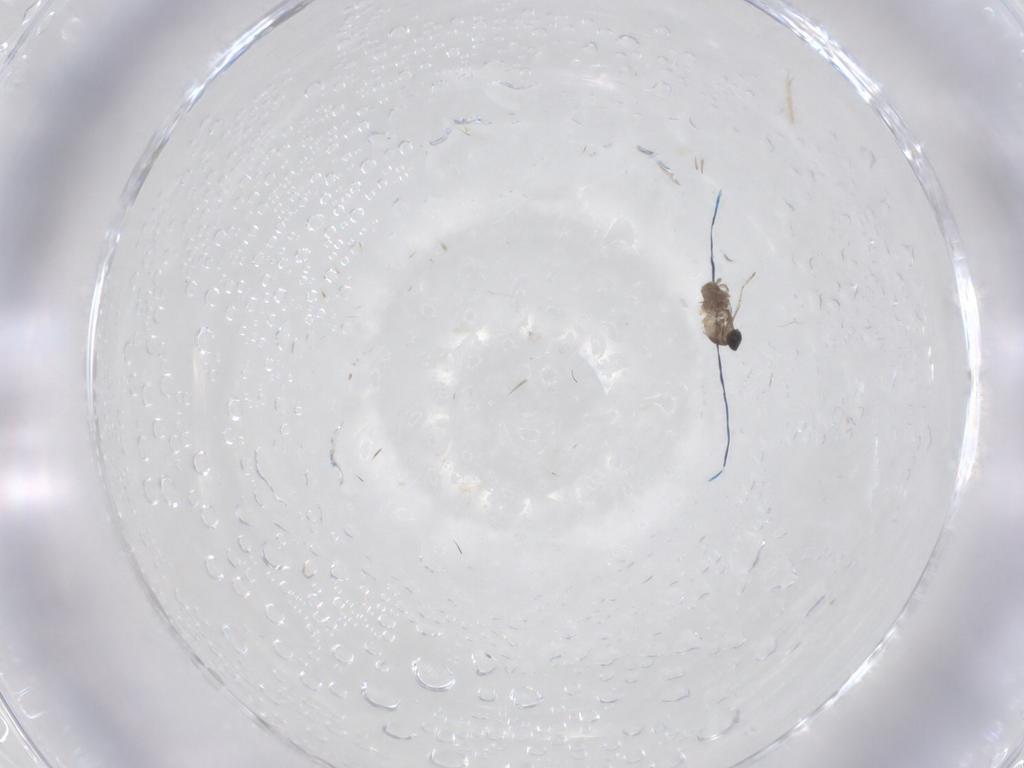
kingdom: Animalia
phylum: Arthropoda
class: Insecta
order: Diptera
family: Cecidomyiidae
